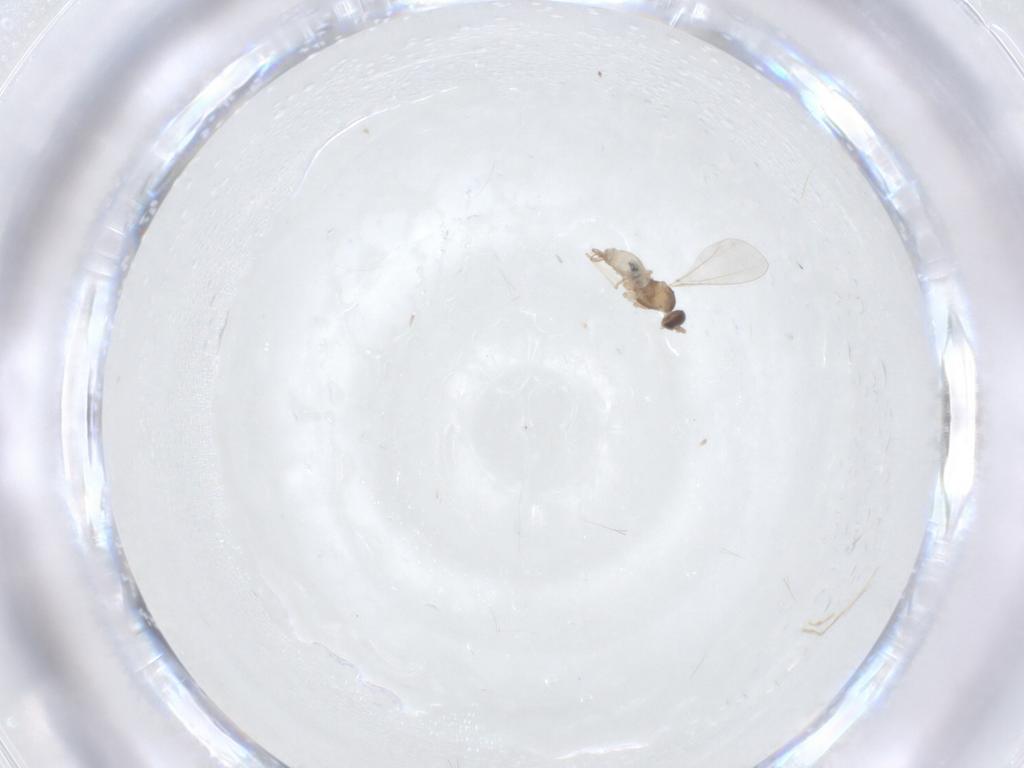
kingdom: Animalia
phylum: Arthropoda
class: Insecta
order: Diptera
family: Cecidomyiidae
